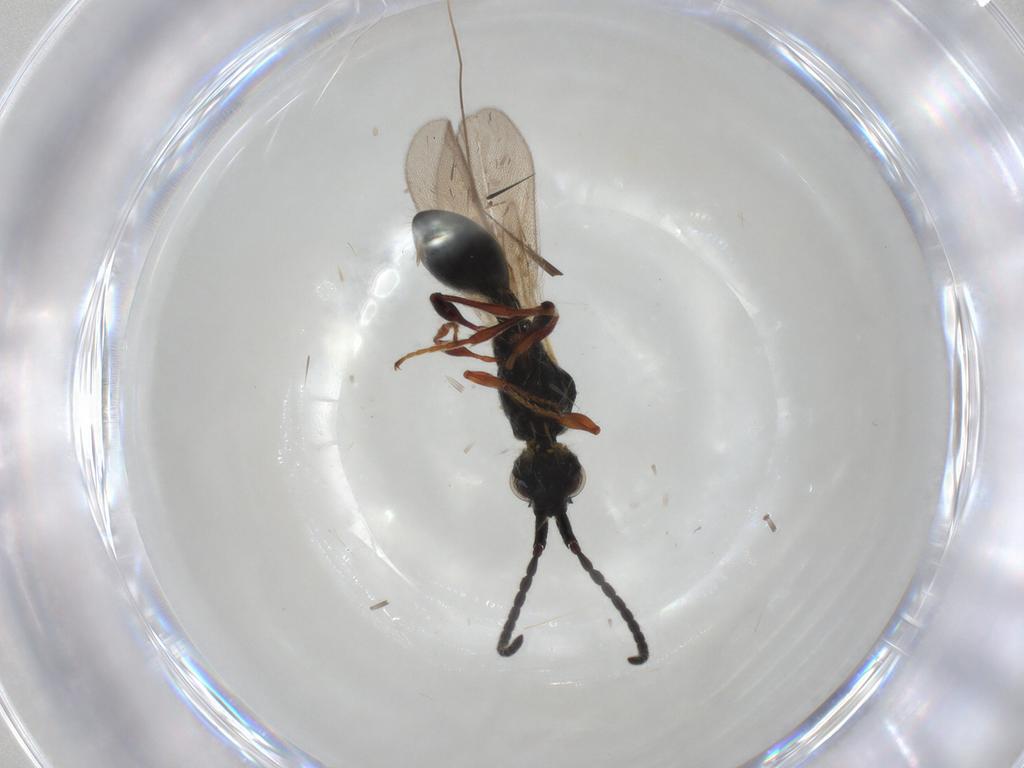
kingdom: Animalia
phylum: Arthropoda
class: Insecta
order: Hymenoptera
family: Diapriidae
